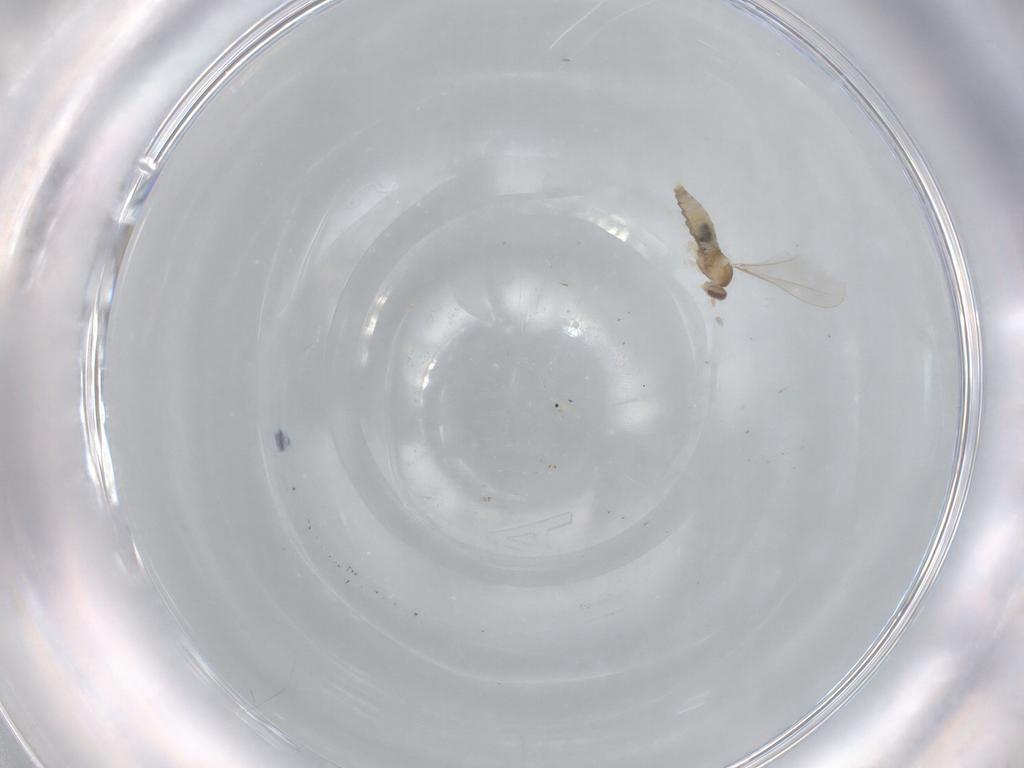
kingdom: Animalia
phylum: Arthropoda
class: Insecta
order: Diptera
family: Cecidomyiidae
